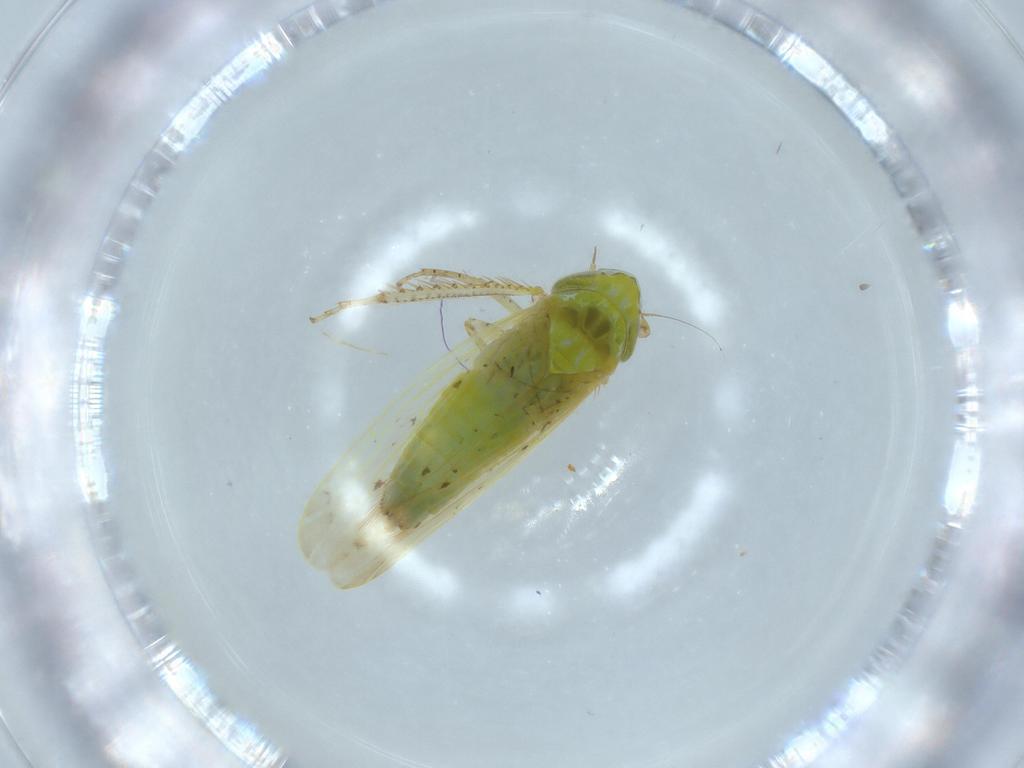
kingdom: Animalia
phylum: Arthropoda
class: Insecta
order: Hemiptera
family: Cicadellidae
